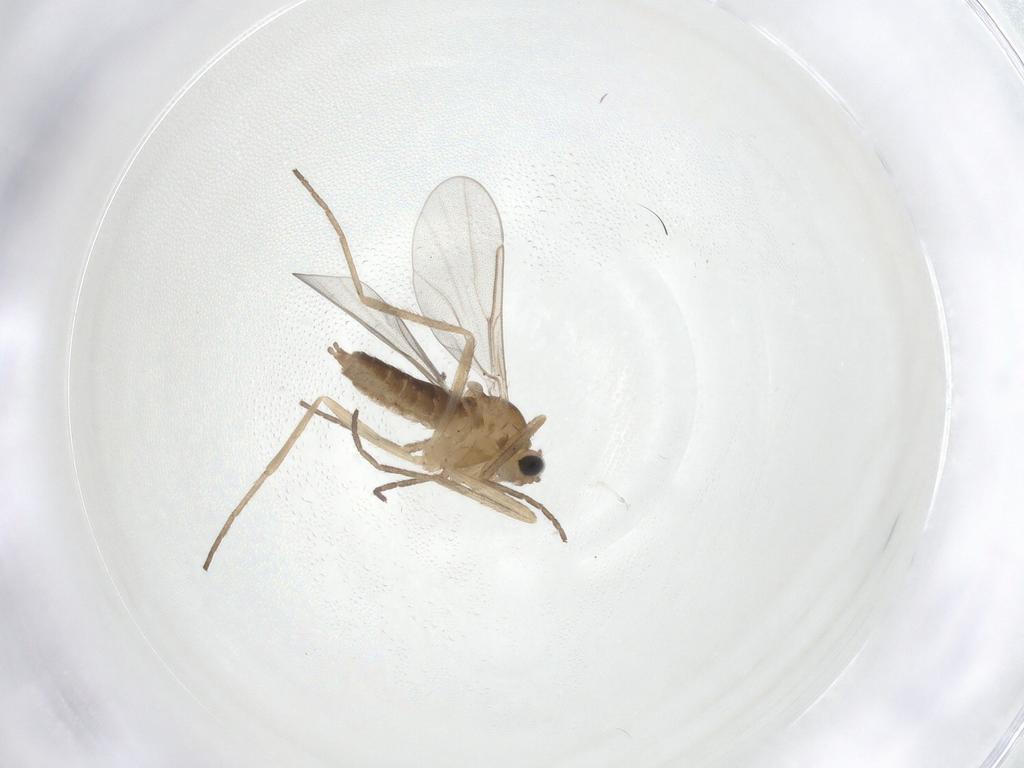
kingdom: Animalia
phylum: Arthropoda
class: Insecta
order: Diptera
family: Cecidomyiidae
